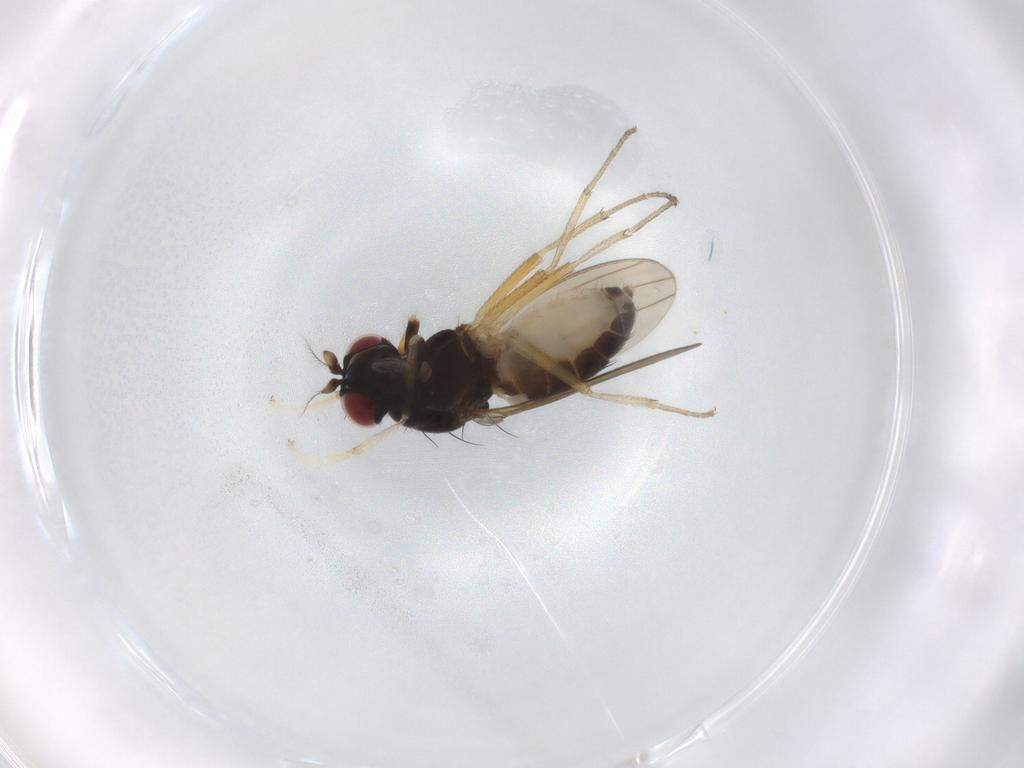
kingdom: Animalia
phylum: Arthropoda
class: Insecta
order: Diptera
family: Lauxaniidae
